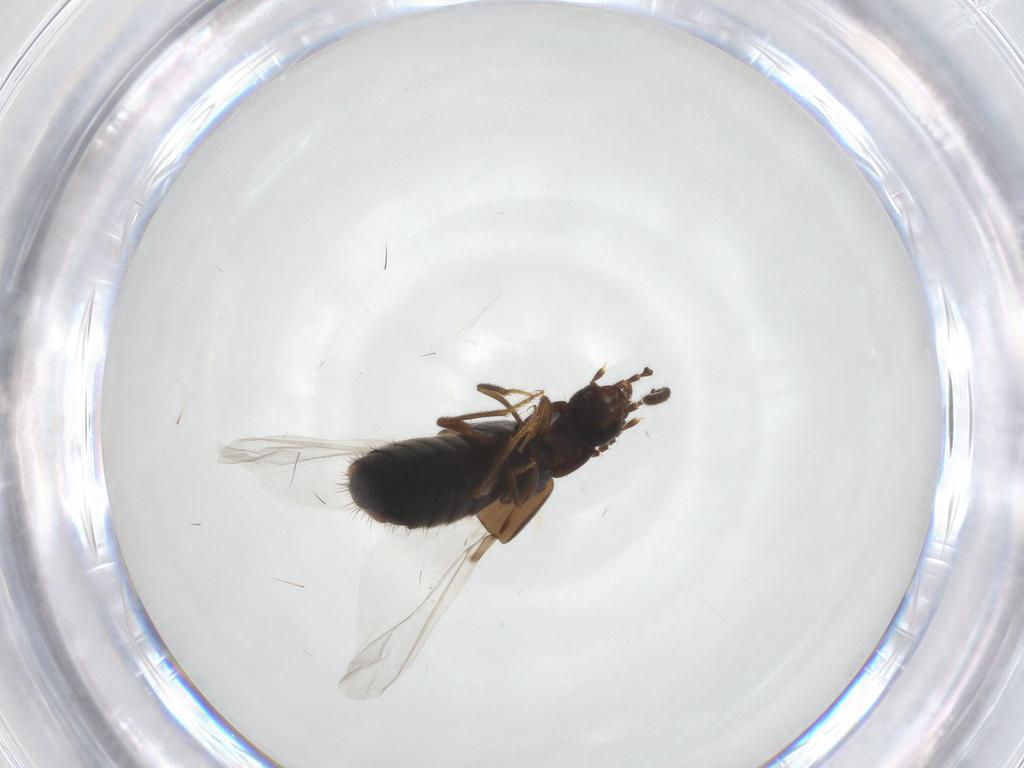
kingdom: Animalia
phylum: Arthropoda
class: Insecta
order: Coleoptera
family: Staphylinidae
